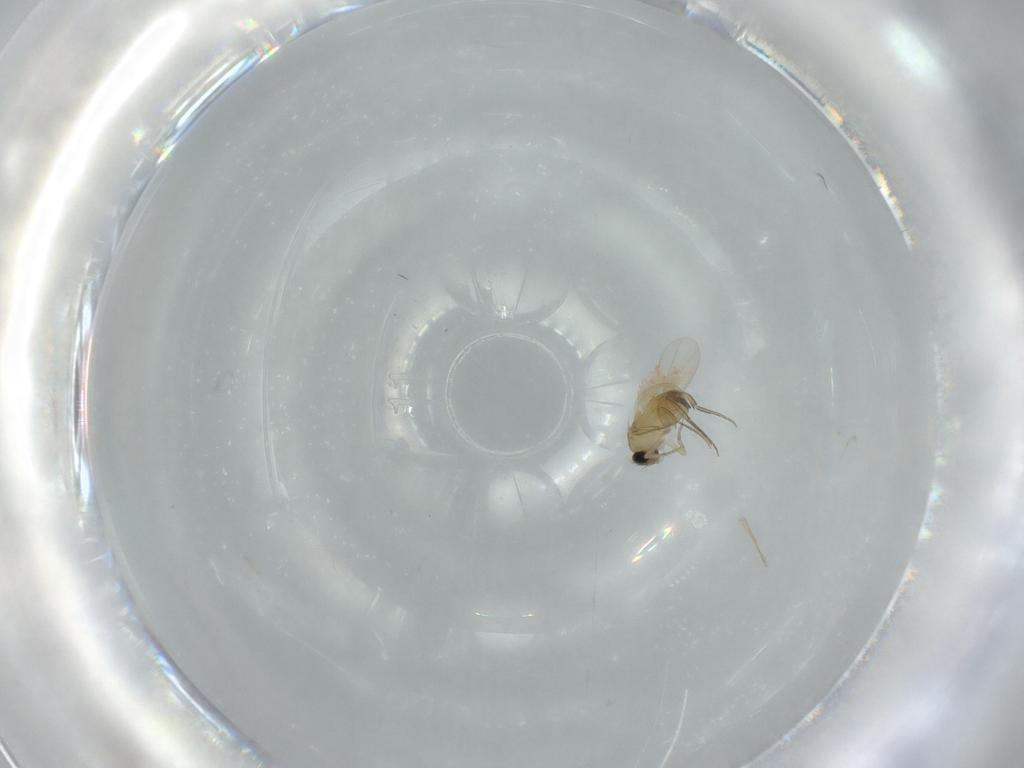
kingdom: Animalia
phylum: Arthropoda
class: Insecta
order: Diptera
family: Phoridae
